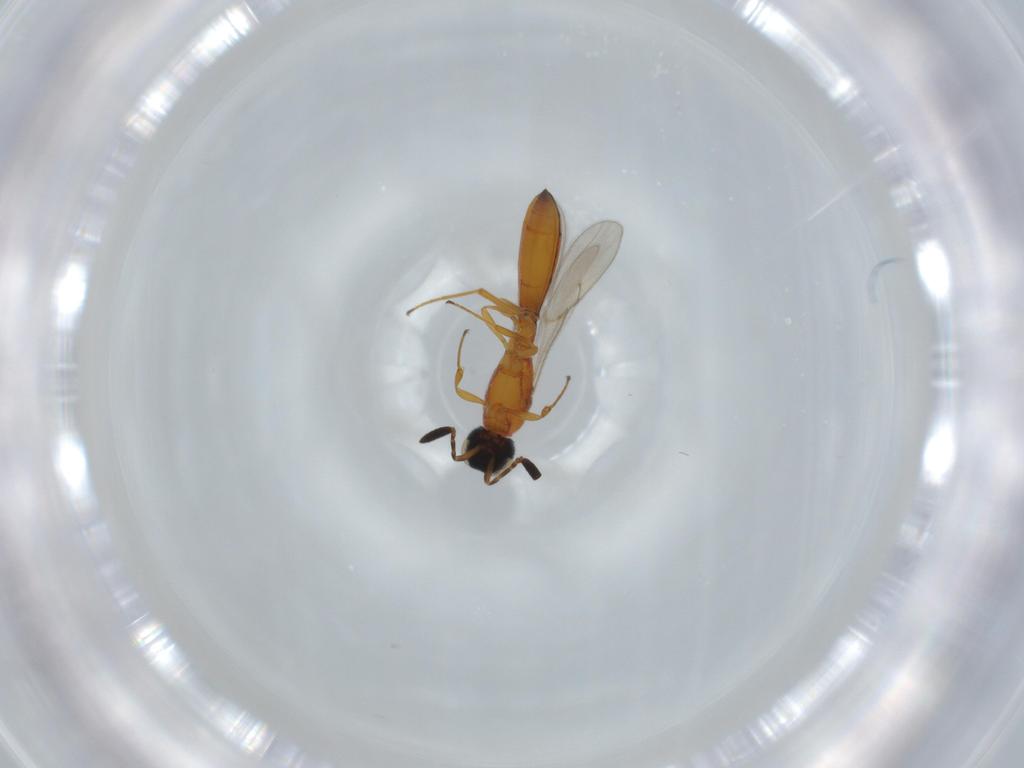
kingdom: Animalia
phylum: Arthropoda
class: Insecta
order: Hymenoptera
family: Scelionidae
